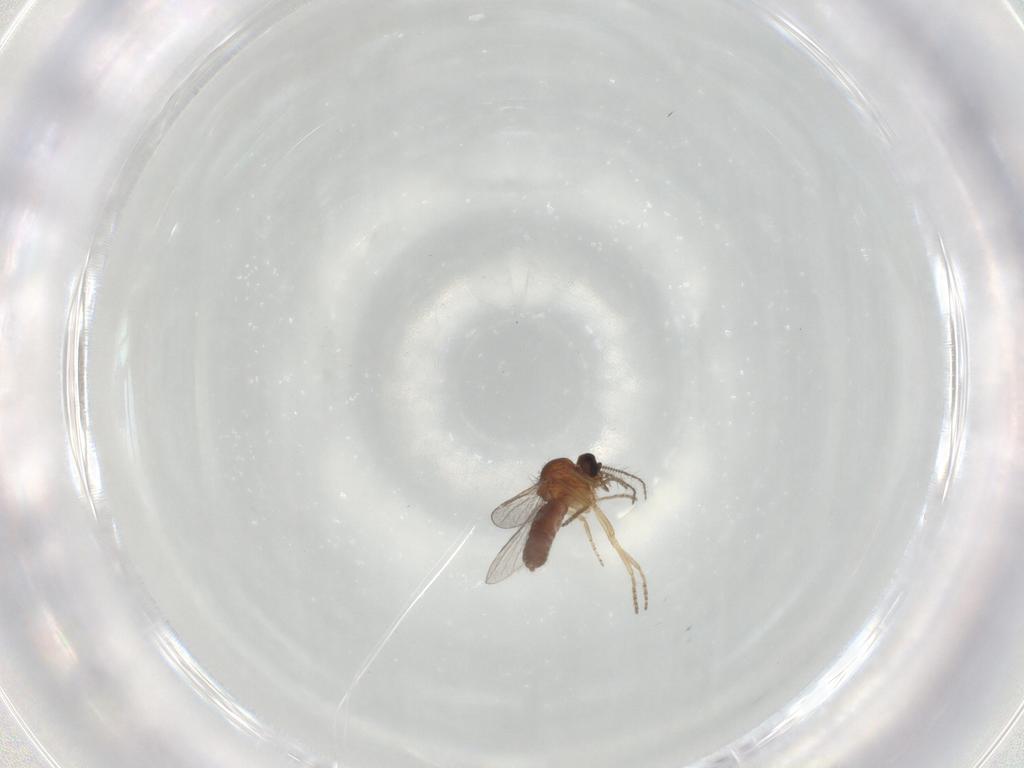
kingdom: Animalia
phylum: Arthropoda
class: Insecta
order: Diptera
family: Ceratopogonidae
